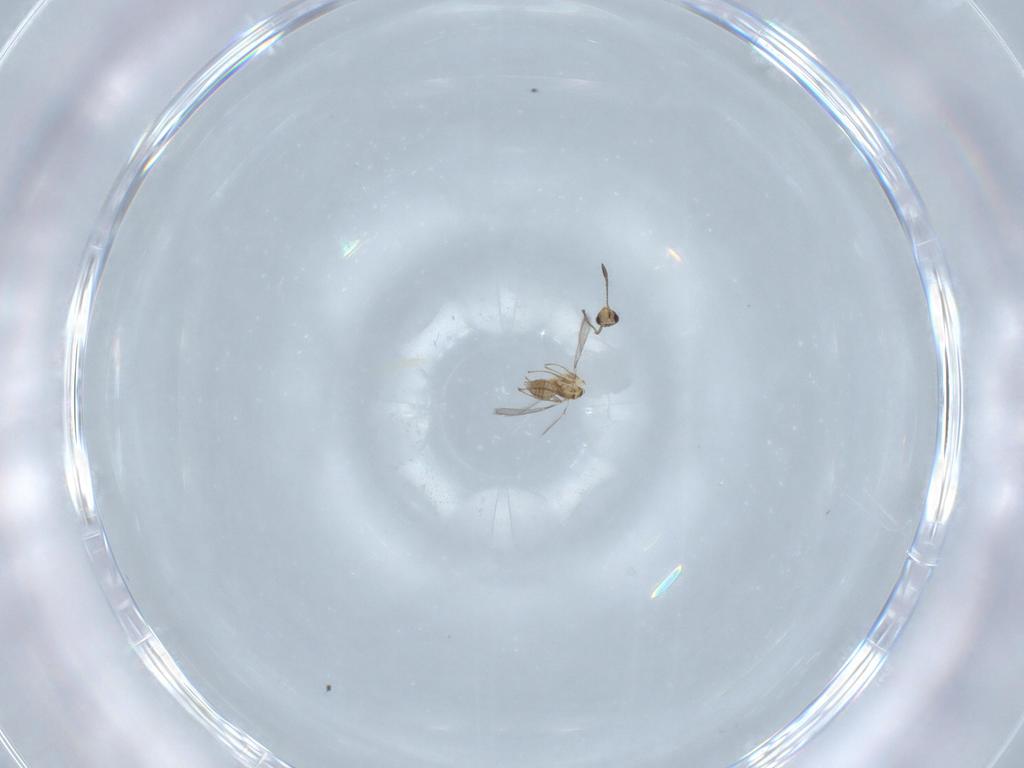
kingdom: Animalia
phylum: Arthropoda
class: Insecta
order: Hymenoptera
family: Mymaridae
